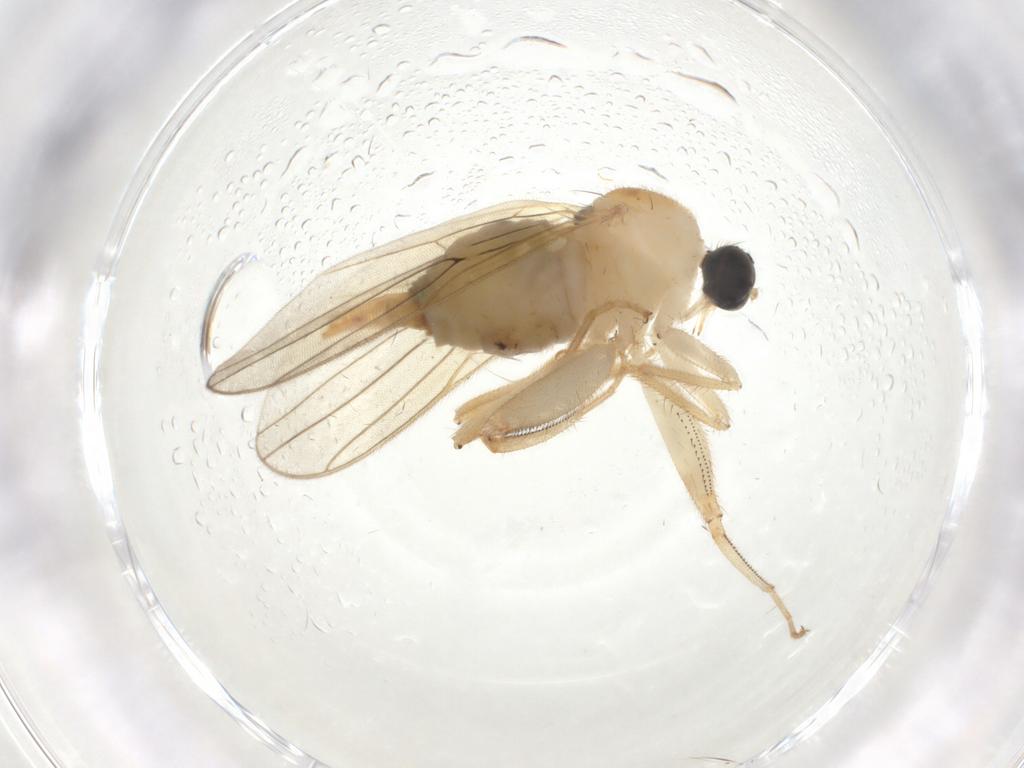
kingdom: Animalia
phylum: Arthropoda
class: Insecta
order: Diptera
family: Hybotidae
